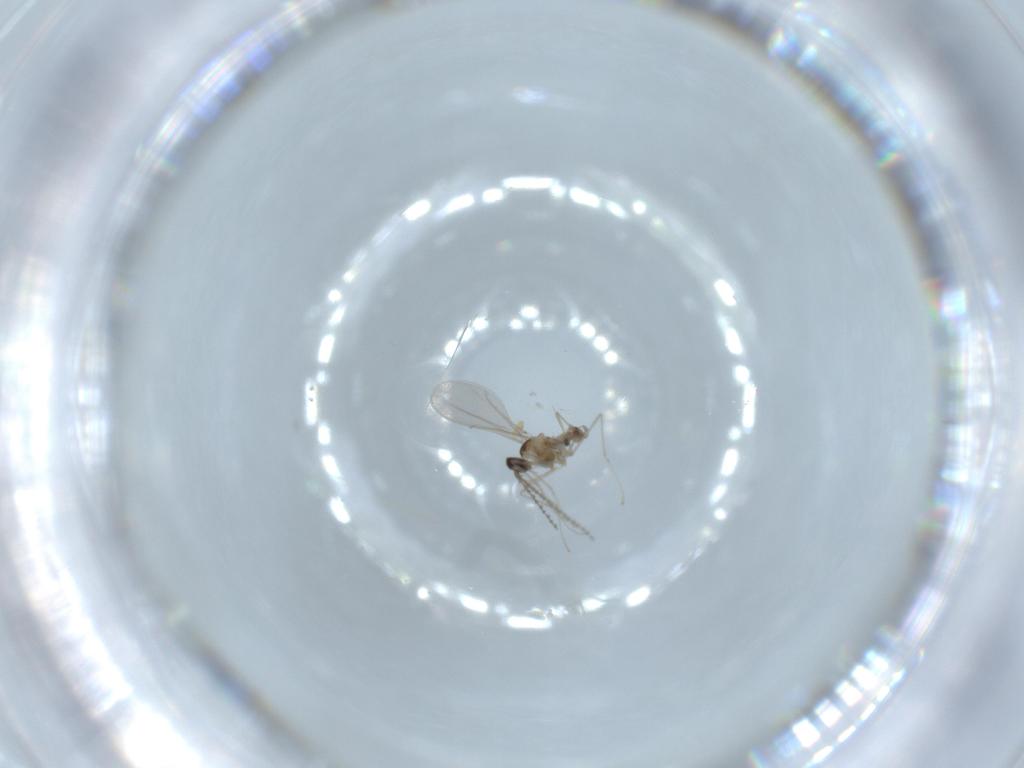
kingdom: Animalia
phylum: Arthropoda
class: Insecta
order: Diptera
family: Cecidomyiidae
